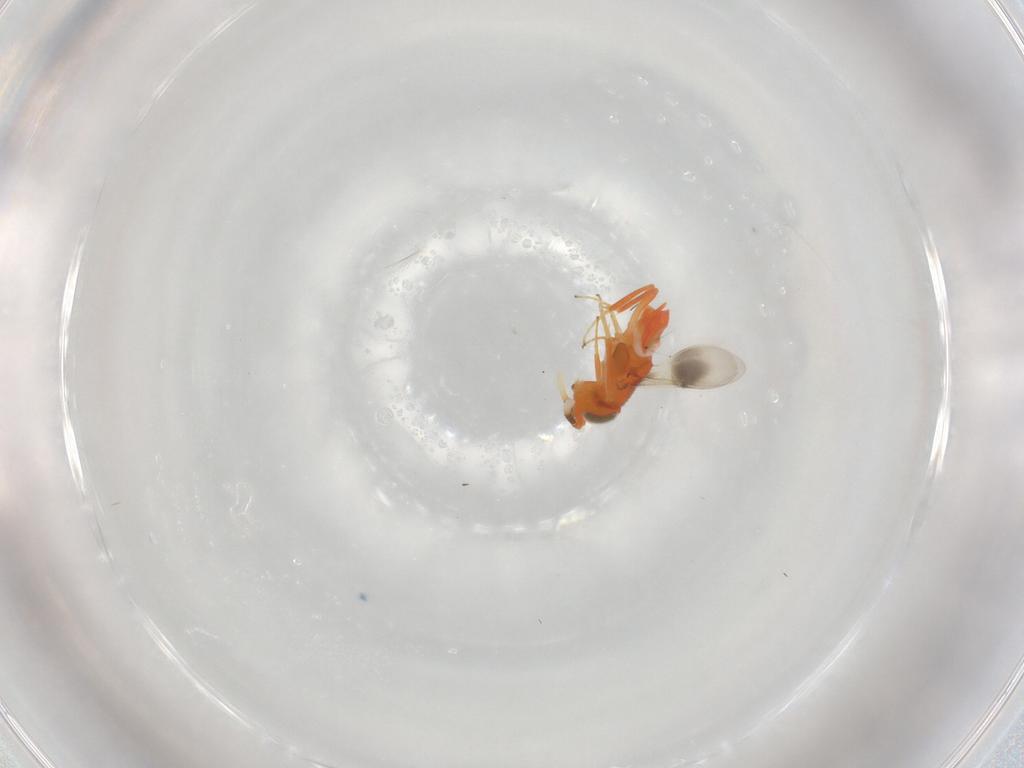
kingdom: Animalia
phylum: Arthropoda
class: Insecta
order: Hymenoptera
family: Encyrtidae
